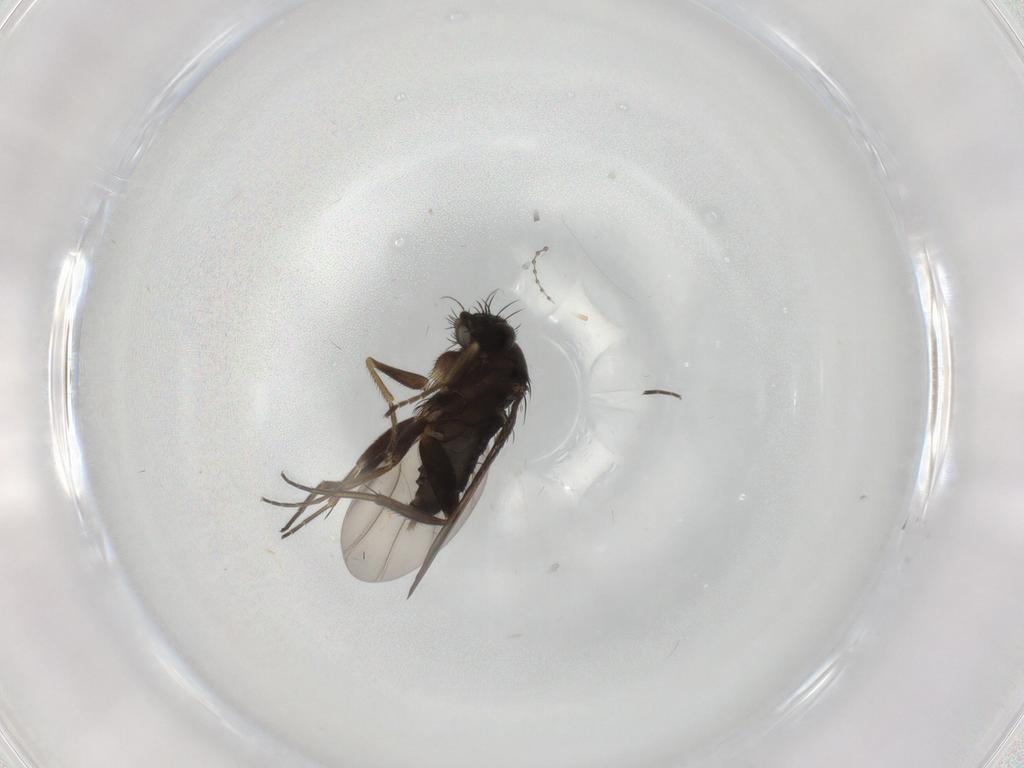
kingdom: Animalia
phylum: Arthropoda
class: Insecta
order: Diptera
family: Phoridae
